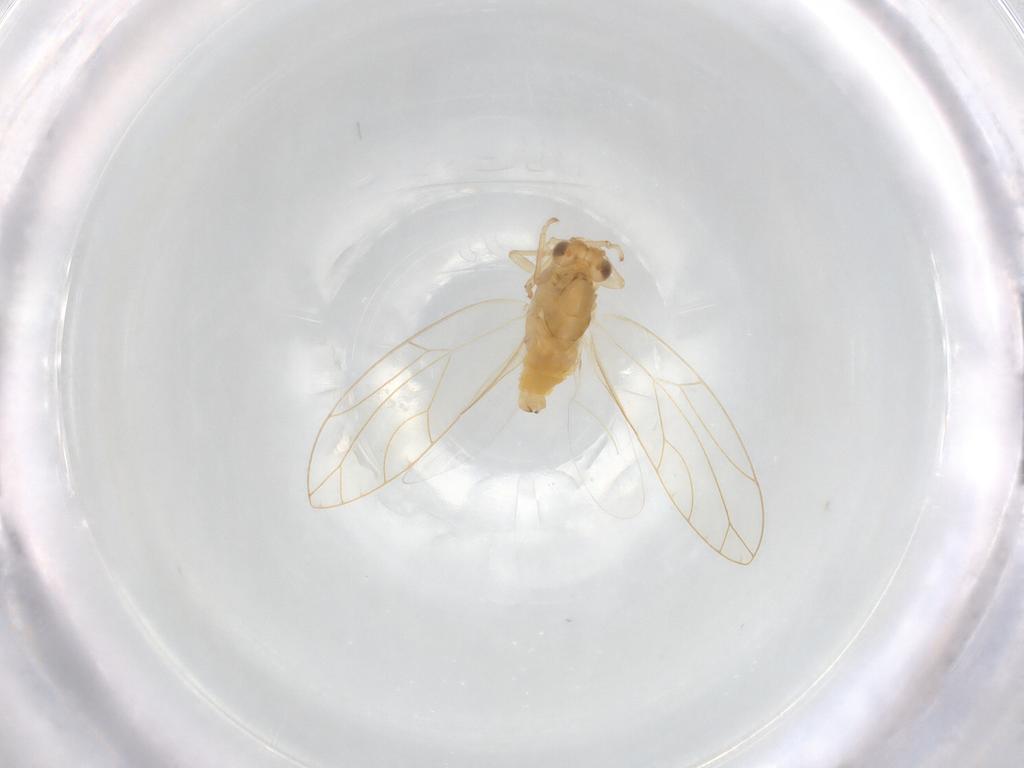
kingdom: Animalia
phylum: Arthropoda
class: Insecta
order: Hemiptera
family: Triozidae
